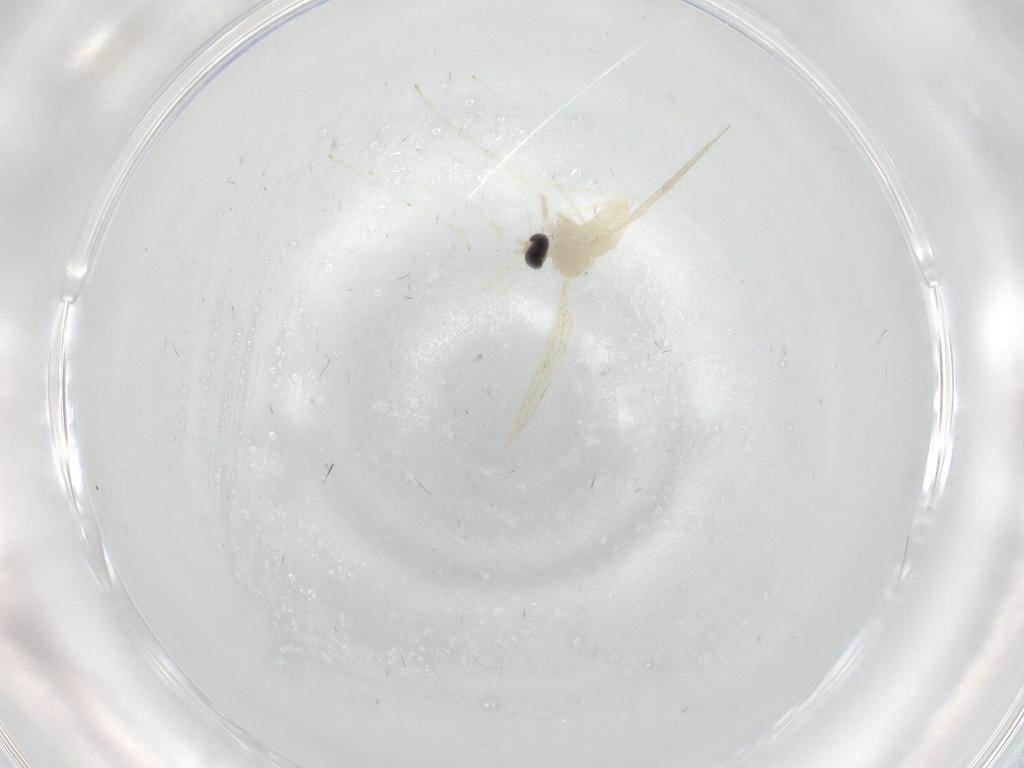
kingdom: Animalia
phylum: Arthropoda
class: Insecta
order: Diptera
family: Cecidomyiidae
